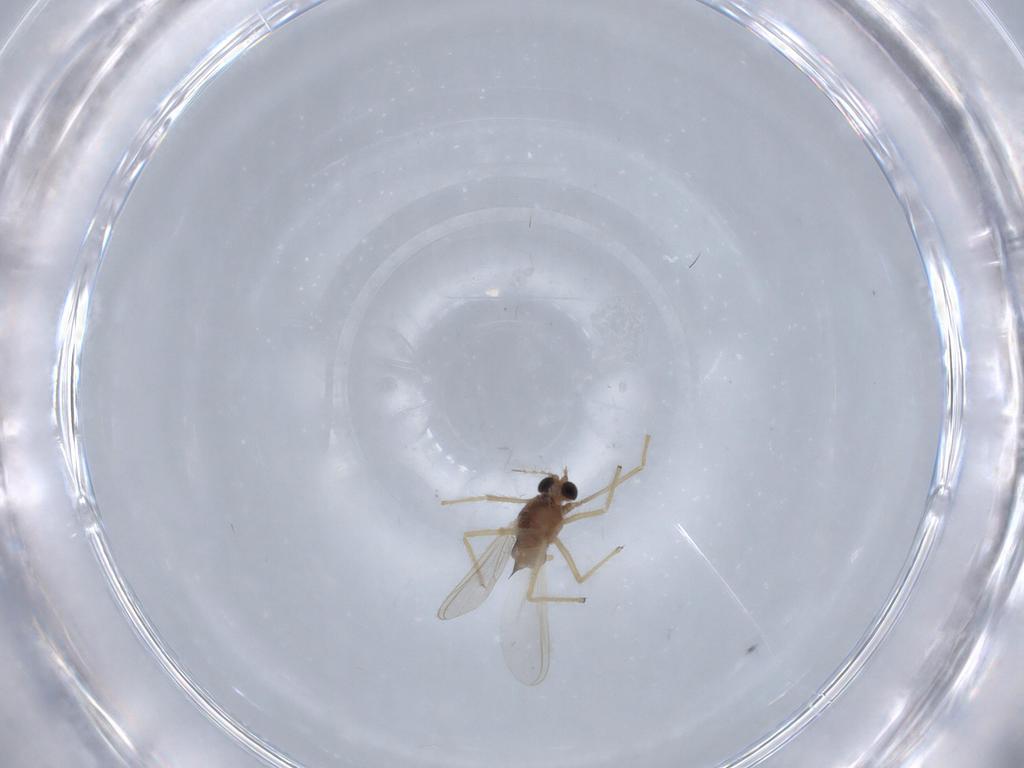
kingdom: Animalia
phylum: Arthropoda
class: Insecta
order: Diptera
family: Chironomidae
